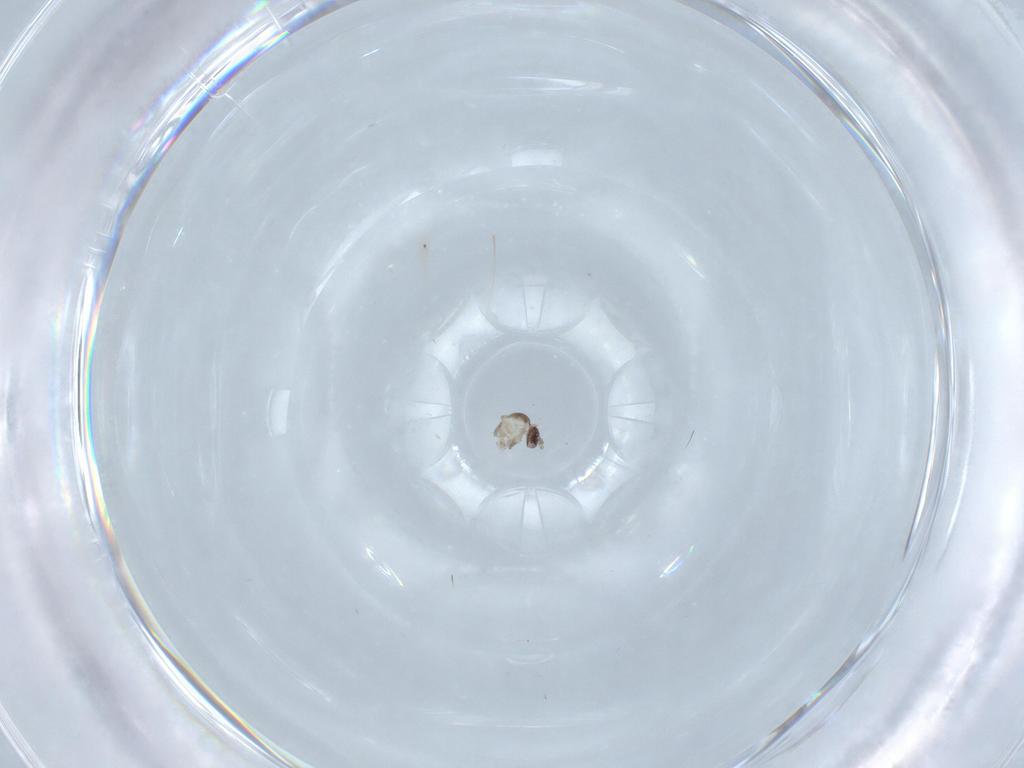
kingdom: Animalia
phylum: Arthropoda
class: Insecta
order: Diptera
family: Cecidomyiidae
